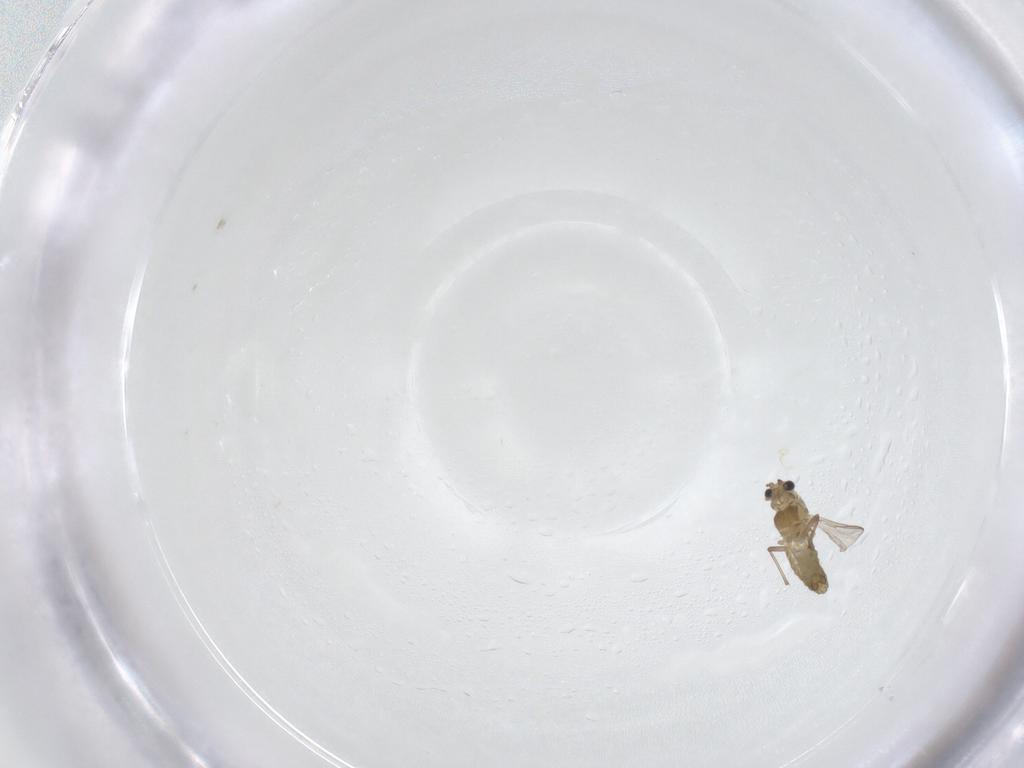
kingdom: Animalia
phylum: Arthropoda
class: Insecta
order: Diptera
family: Chironomidae
